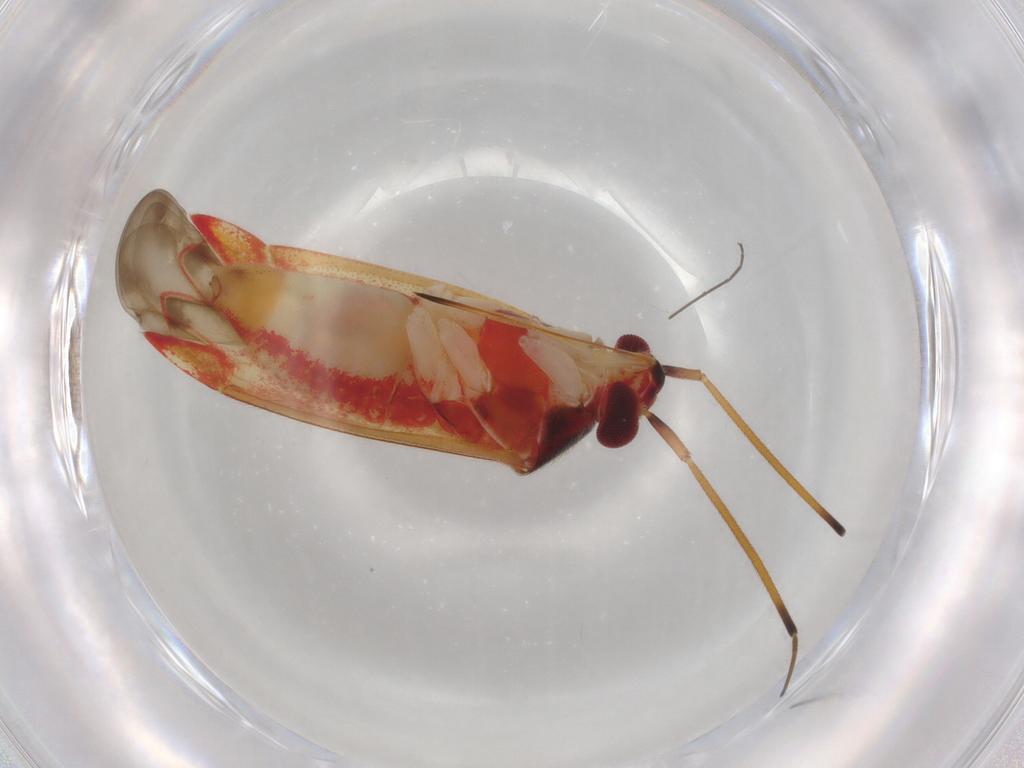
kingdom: Animalia
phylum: Arthropoda
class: Insecta
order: Hemiptera
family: Miridae
